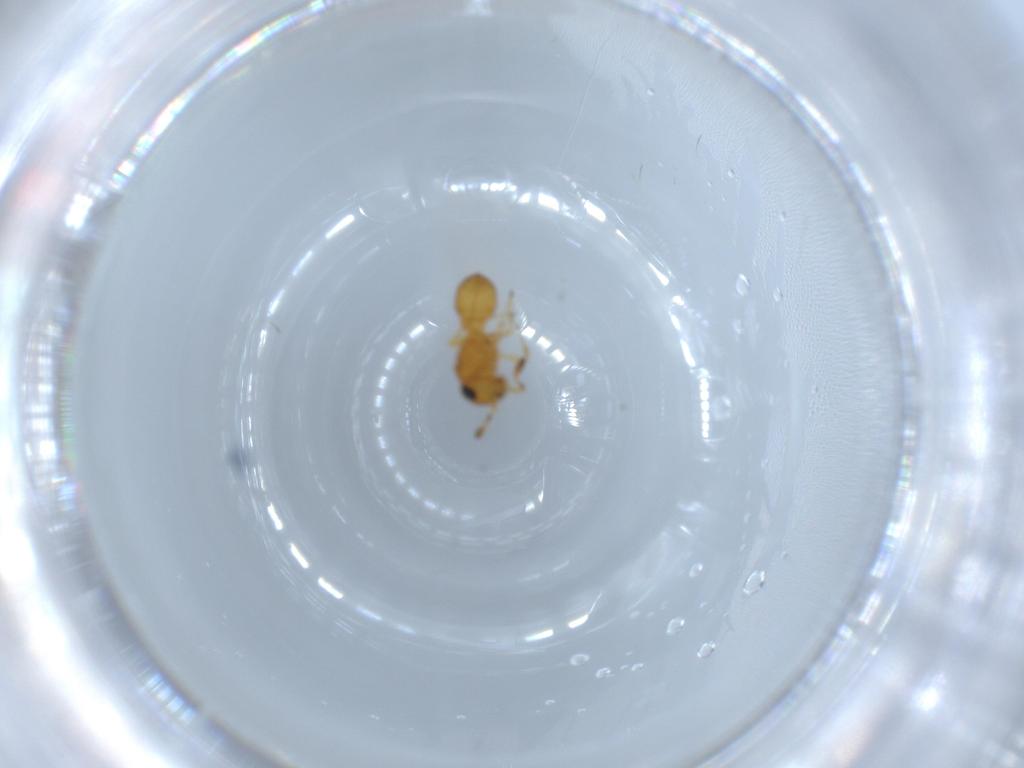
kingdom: Animalia
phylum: Arthropoda
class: Insecta
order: Hymenoptera
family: Scelionidae
